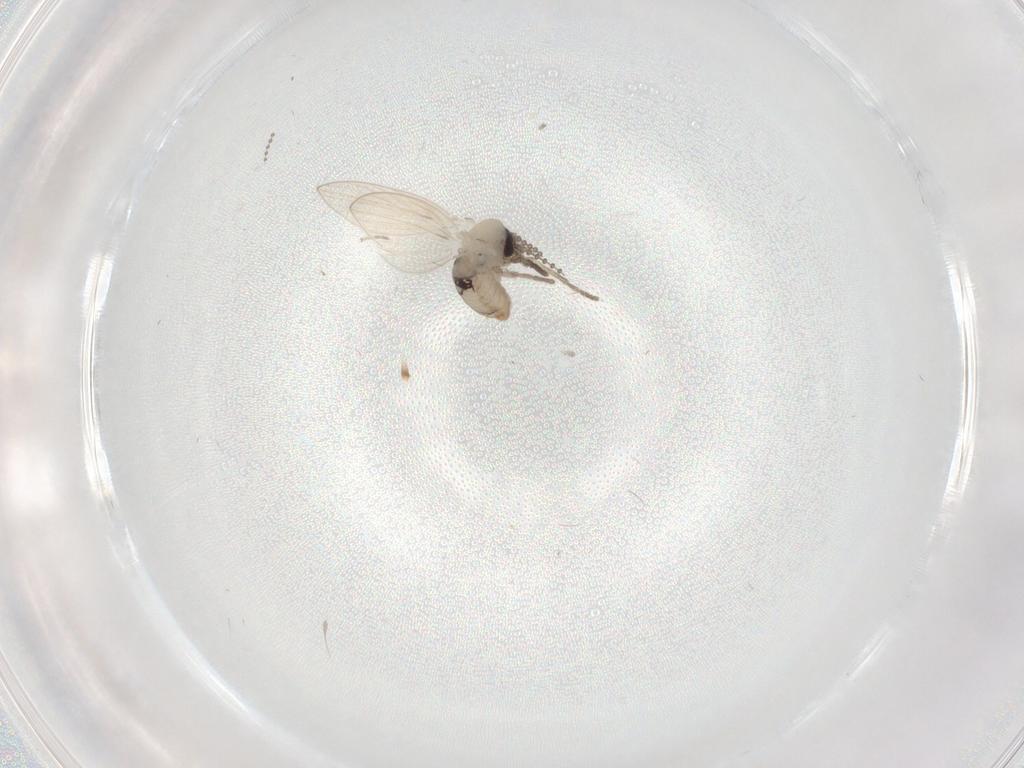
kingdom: Animalia
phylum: Arthropoda
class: Insecta
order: Diptera
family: Psychodidae
